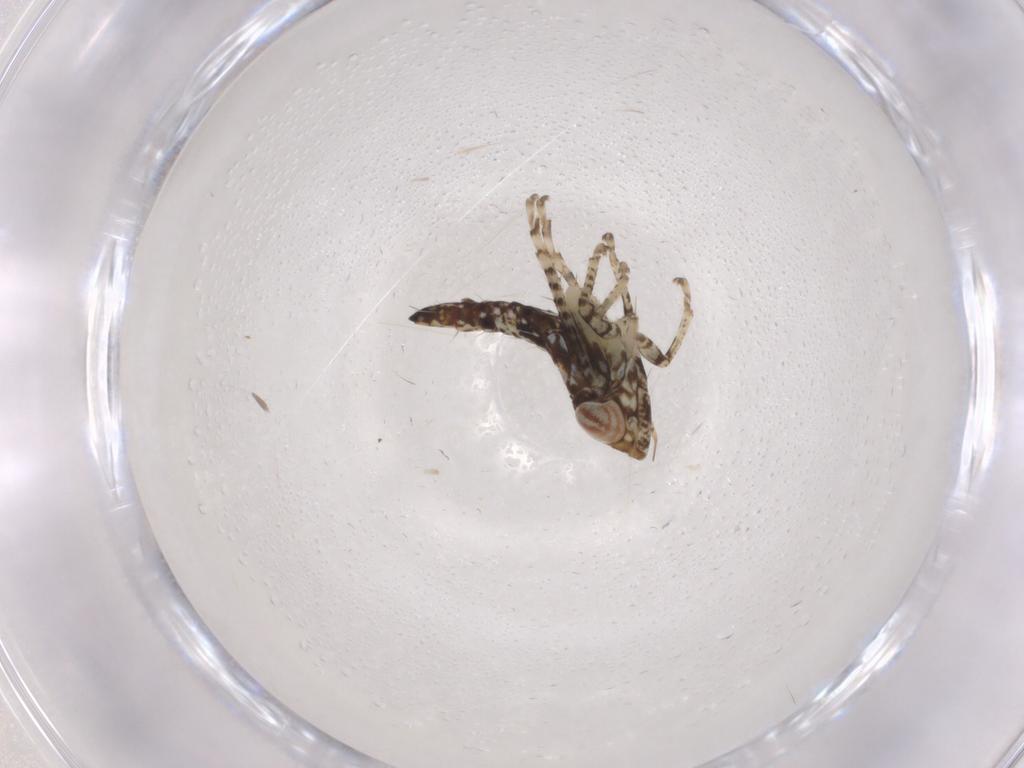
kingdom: Animalia
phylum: Arthropoda
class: Insecta
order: Hemiptera
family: Cicadellidae
